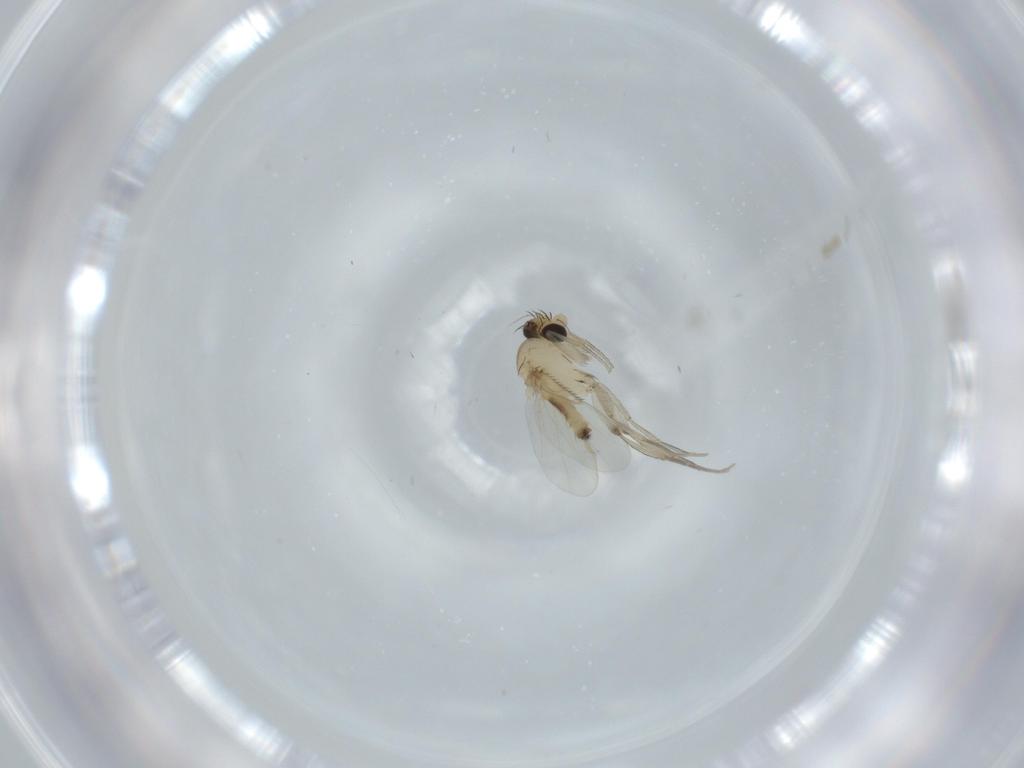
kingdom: Animalia
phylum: Arthropoda
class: Insecta
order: Diptera
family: Phoridae
